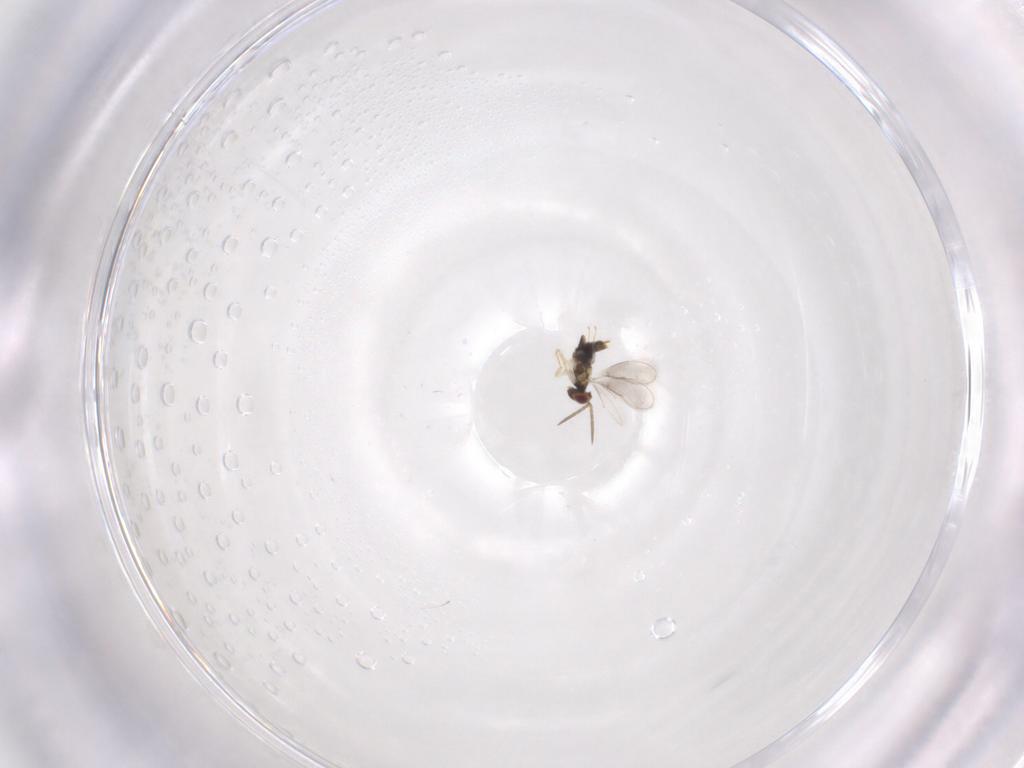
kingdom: Animalia
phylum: Arthropoda
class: Insecta
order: Hymenoptera
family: Aphelinidae
